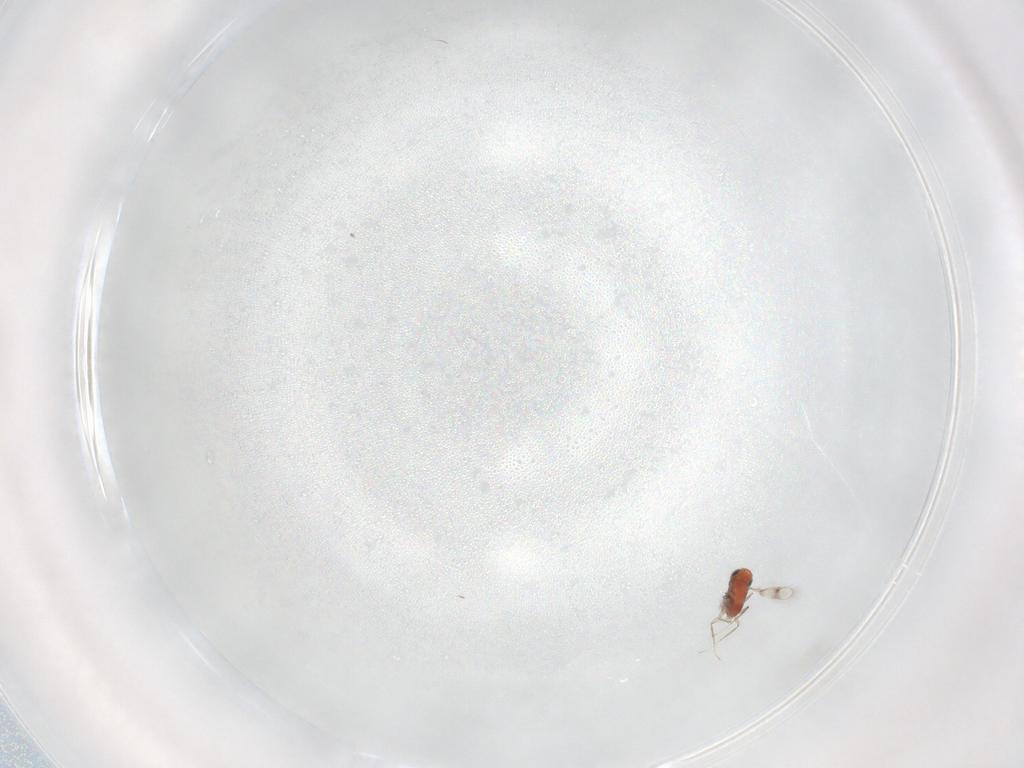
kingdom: Animalia
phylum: Arthropoda
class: Insecta
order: Hymenoptera
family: Trichogrammatidae
